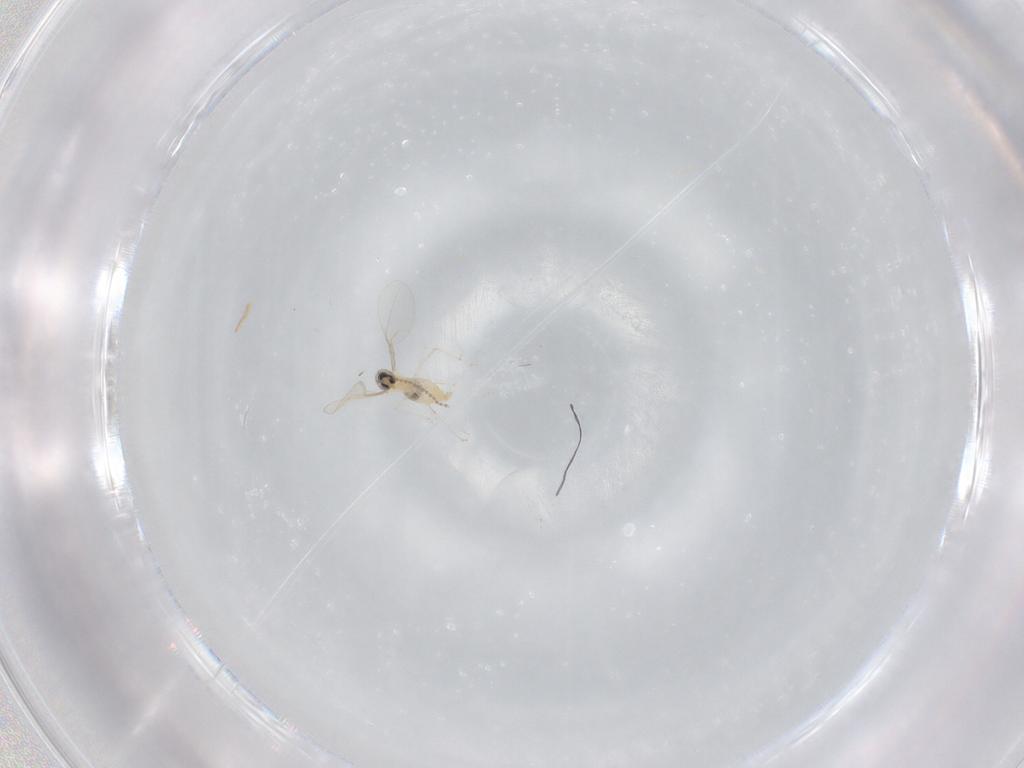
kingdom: Animalia
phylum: Arthropoda
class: Insecta
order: Diptera
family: Cecidomyiidae
